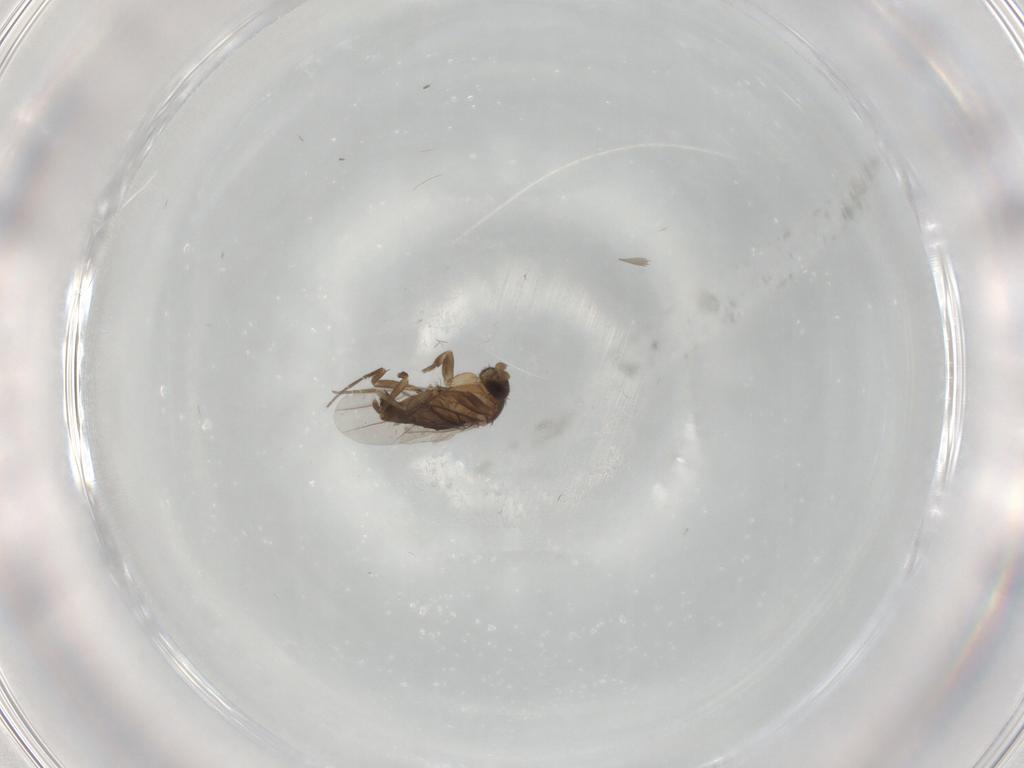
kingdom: Animalia
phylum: Arthropoda
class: Insecta
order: Diptera
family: Phoridae
